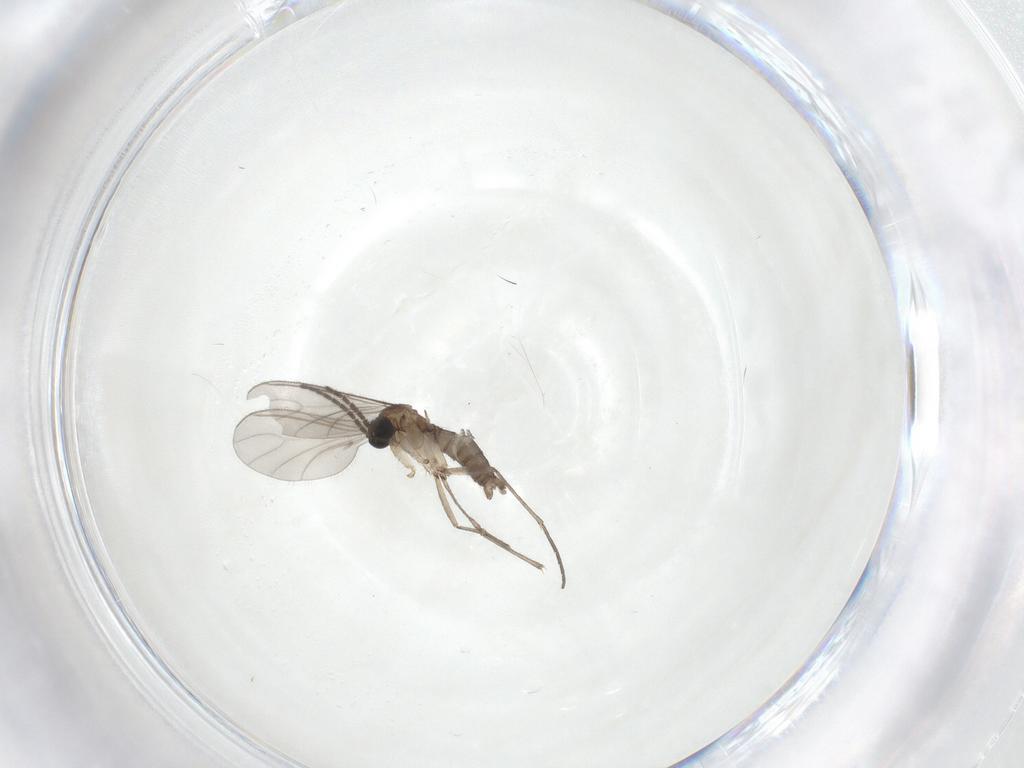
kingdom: Animalia
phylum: Arthropoda
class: Insecta
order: Diptera
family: Sciaridae
